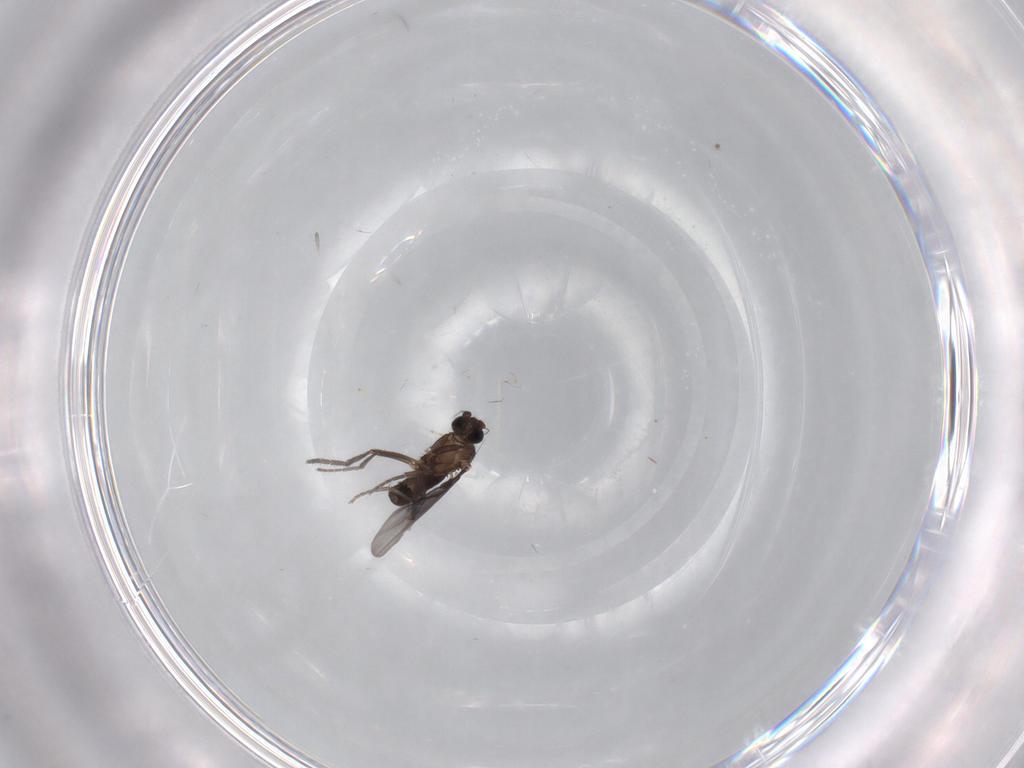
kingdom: Animalia
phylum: Arthropoda
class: Insecta
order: Diptera
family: Phoridae
